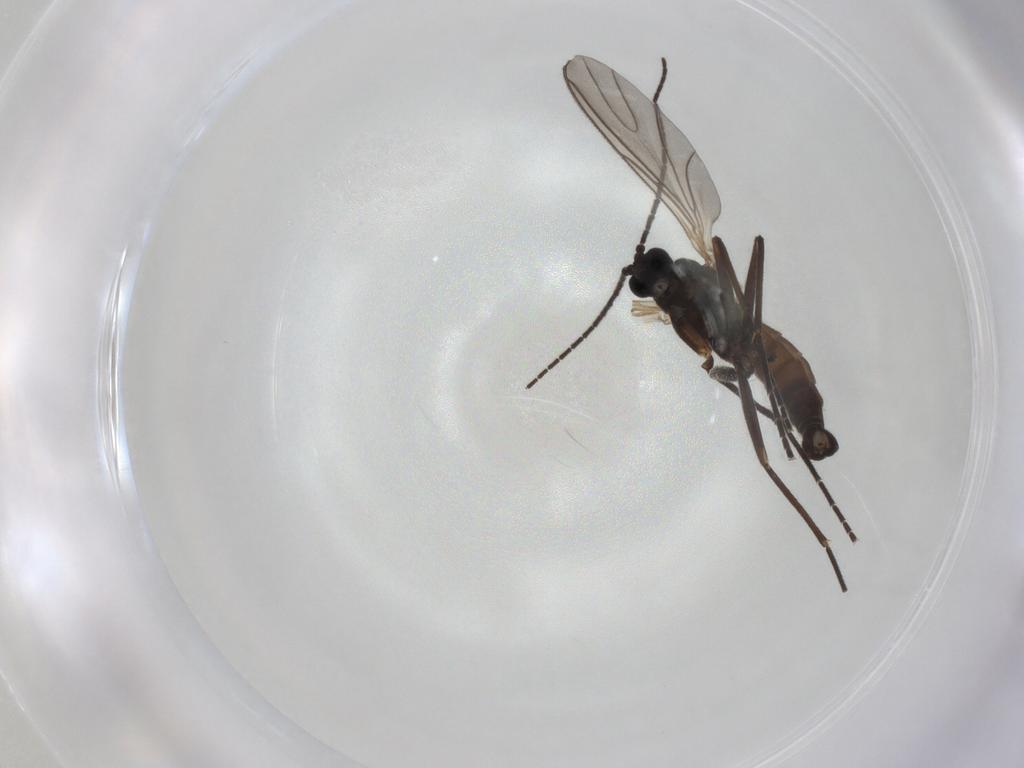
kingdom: Animalia
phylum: Arthropoda
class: Insecta
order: Diptera
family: Sciaridae
